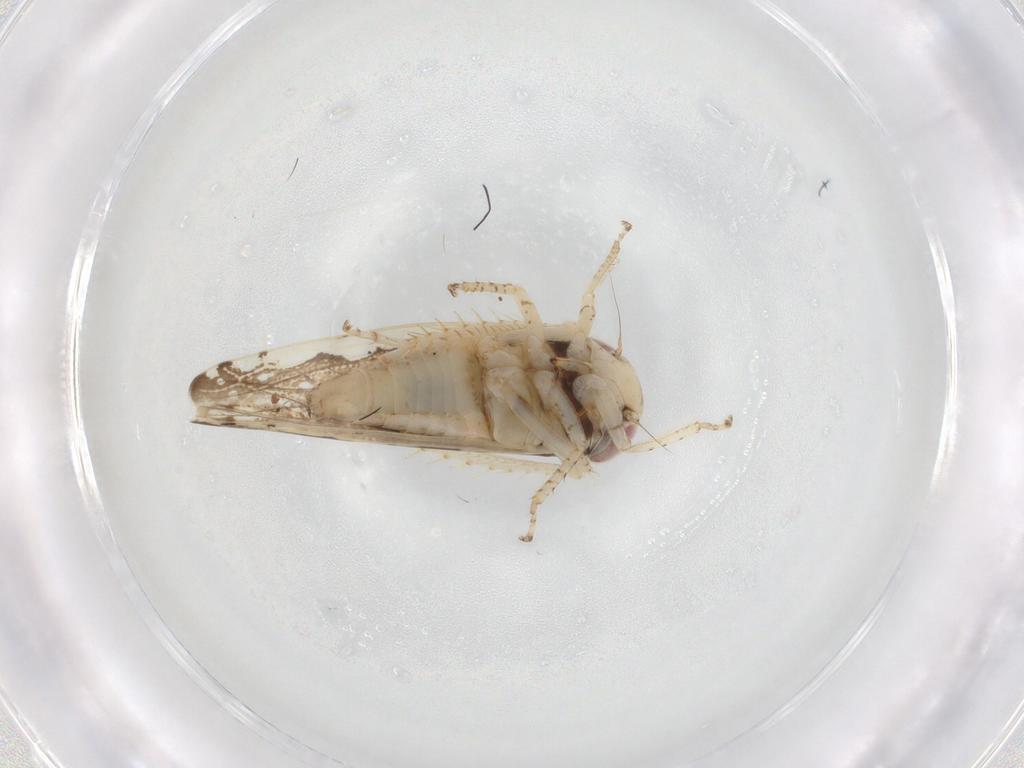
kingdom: Animalia
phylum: Arthropoda
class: Insecta
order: Hemiptera
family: Cicadellidae
